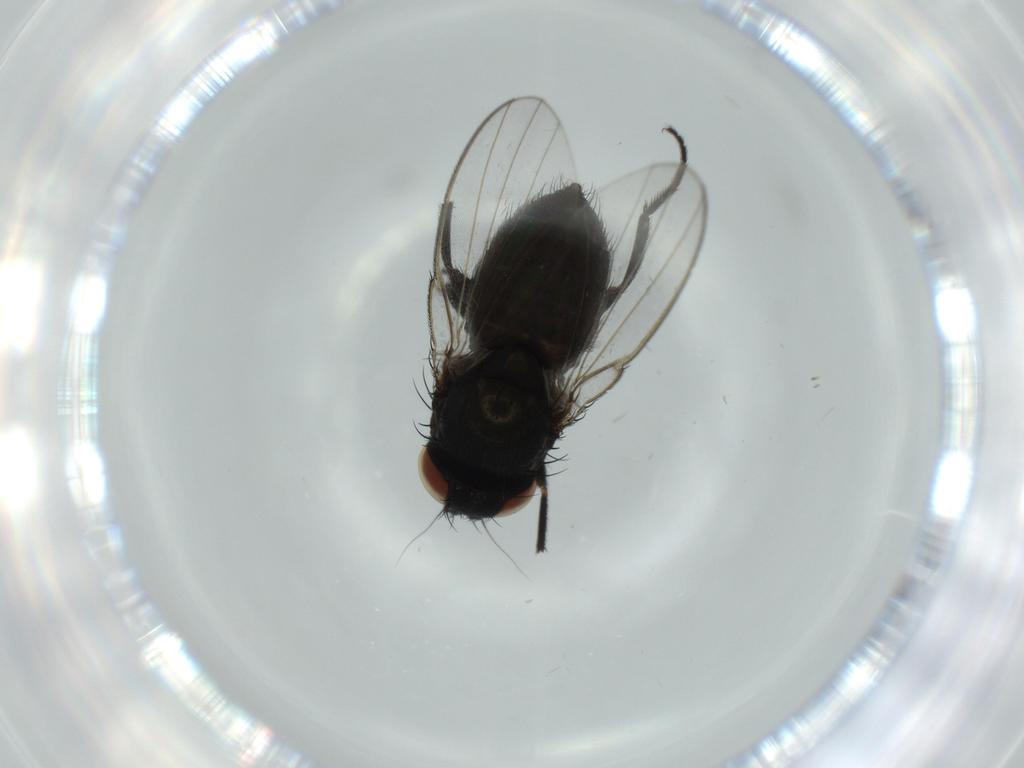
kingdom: Animalia
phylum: Arthropoda
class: Insecta
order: Diptera
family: Milichiidae
